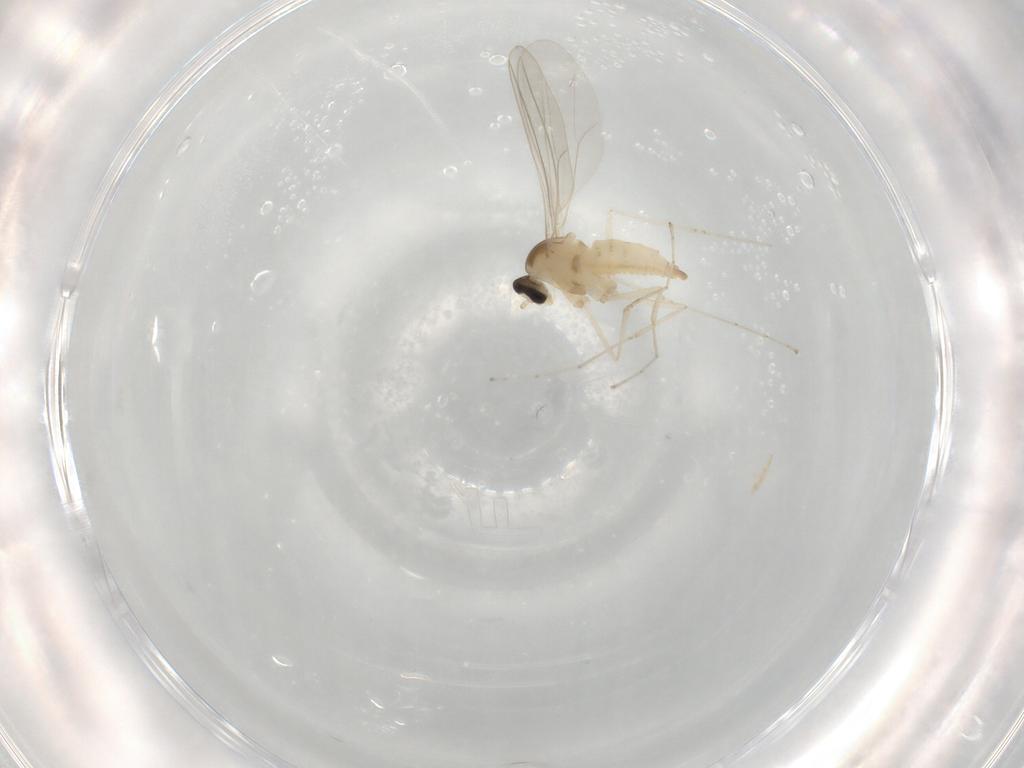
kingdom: Animalia
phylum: Arthropoda
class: Insecta
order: Diptera
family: Cecidomyiidae
